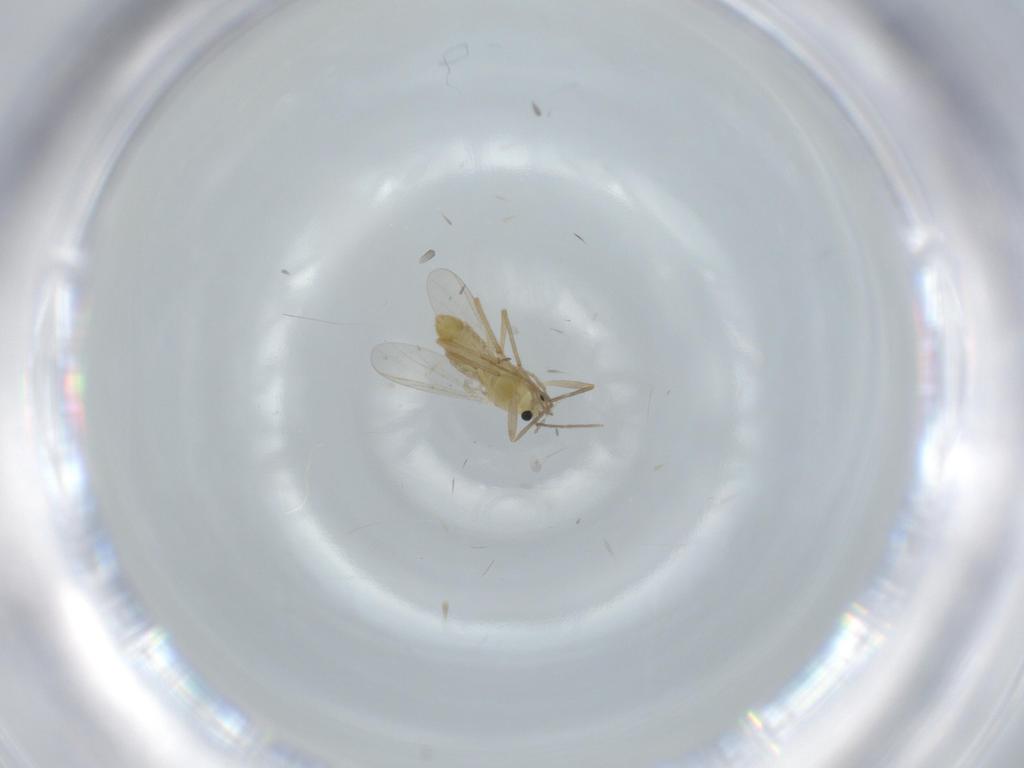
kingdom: Animalia
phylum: Arthropoda
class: Insecta
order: Diptera
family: Chironomidae
